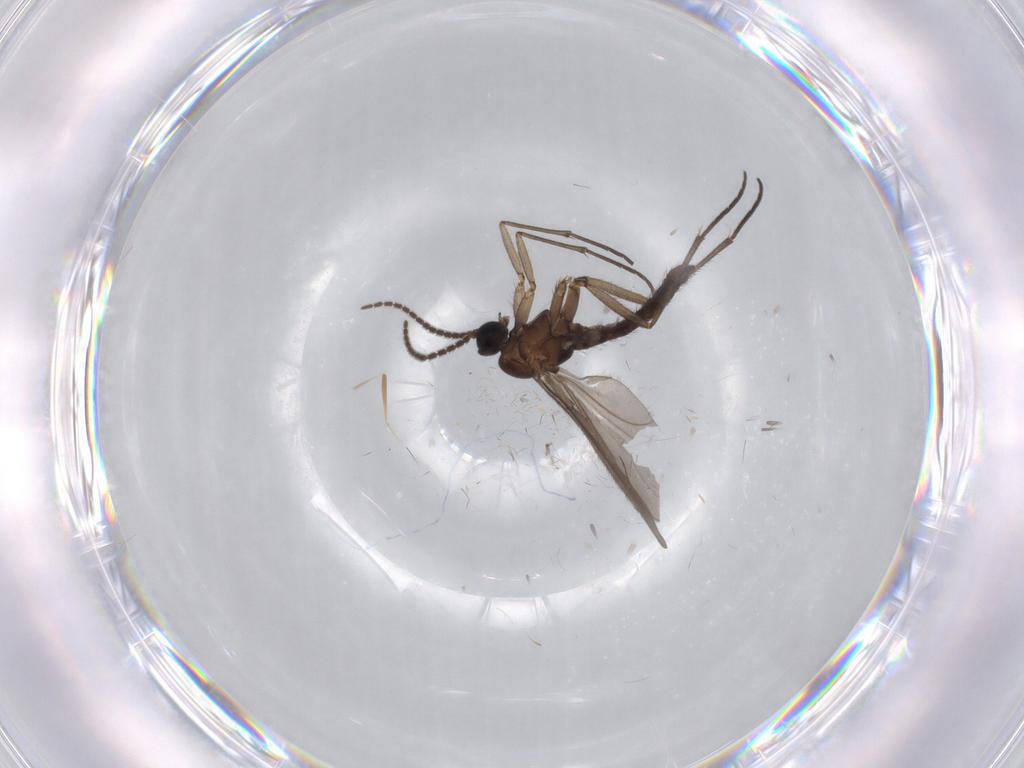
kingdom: Animalia
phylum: Arthropoda
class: Insecta
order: Diptera
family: Sciaridae
